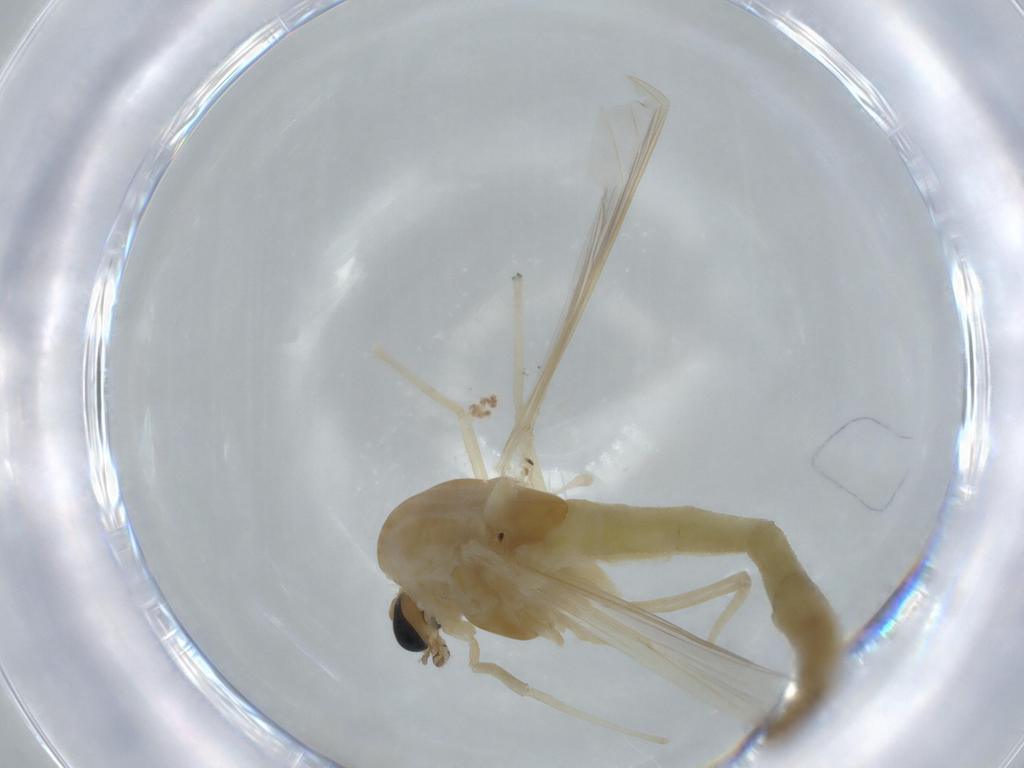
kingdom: Animalia
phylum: Arthropoda
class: Insecta
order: Diptera
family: Chironomidae
